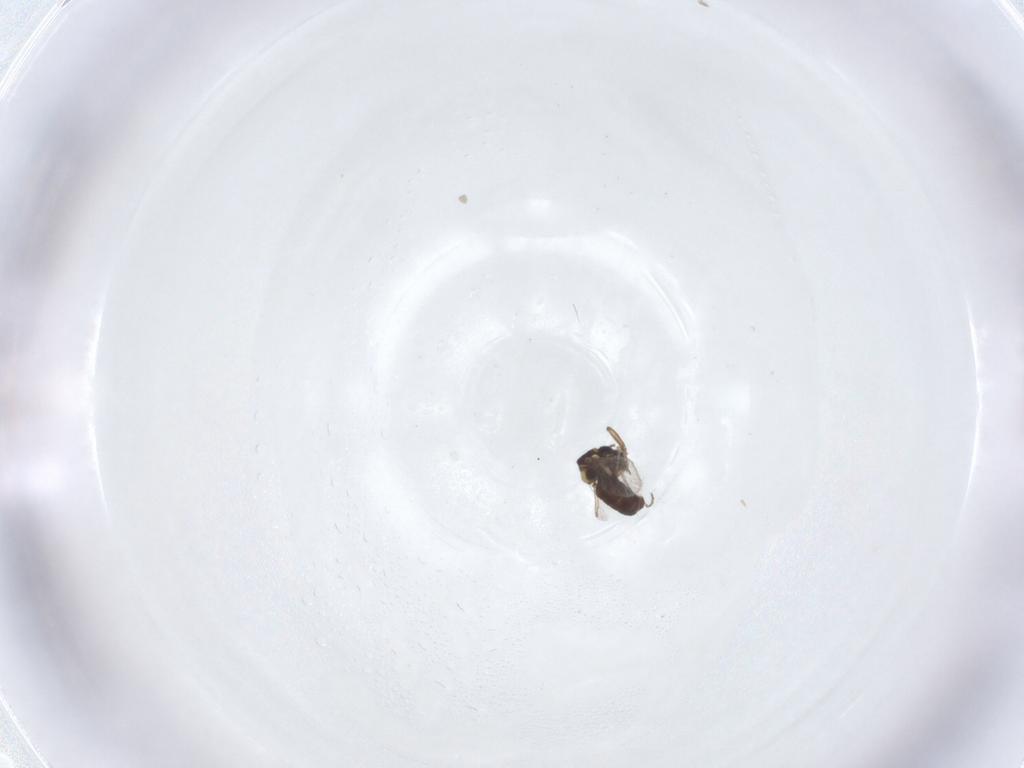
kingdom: Animalia
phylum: Arthropoda
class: Insecta
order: Diptera
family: Ceratopogonidae
